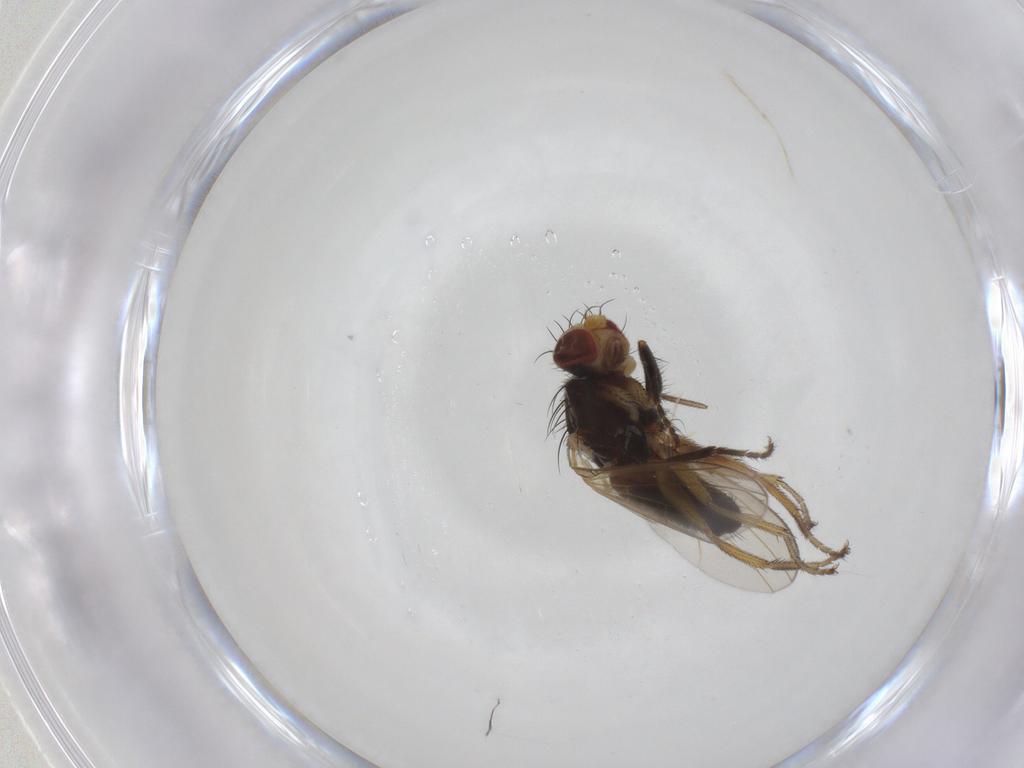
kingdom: Animalia
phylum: Arthropoda
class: Insecta
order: Diptera
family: Heleomyzidae
